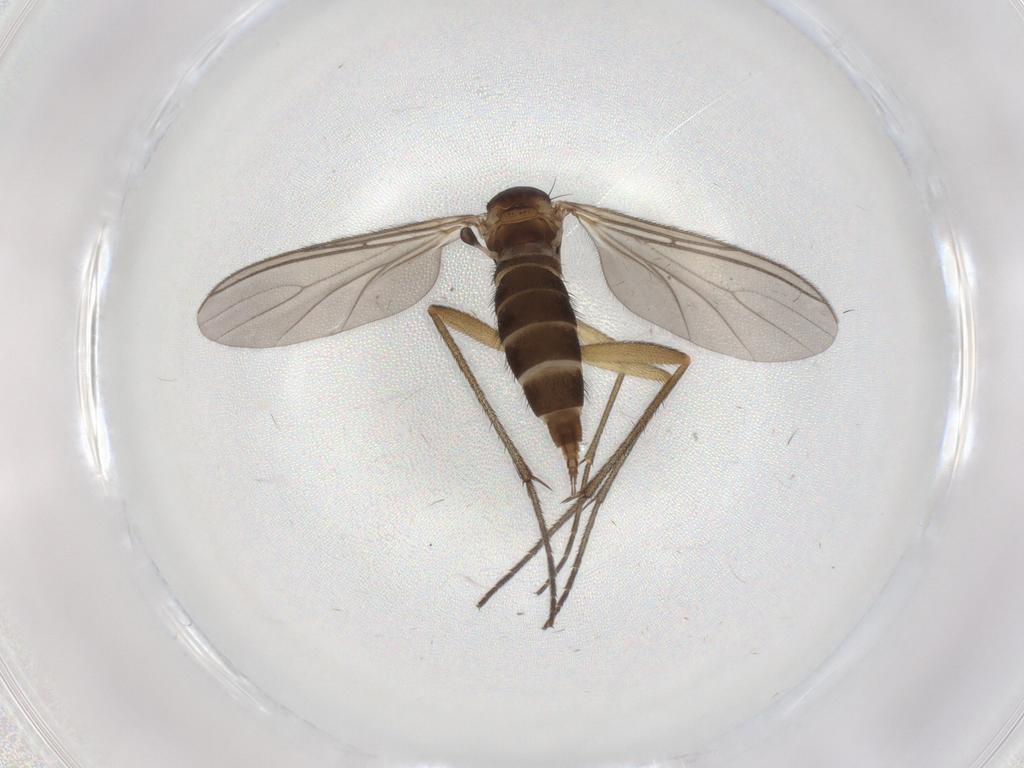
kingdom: Animalia
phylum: Arthropoda
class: Insecta
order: Diptera
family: Sciaridae
